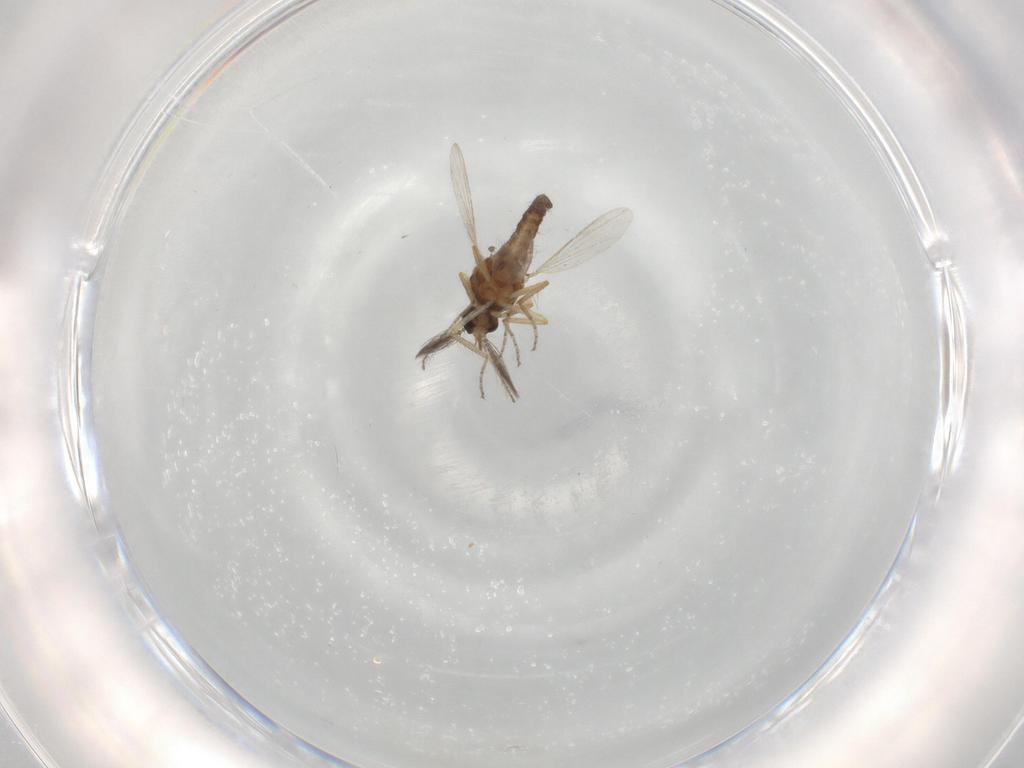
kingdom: Animalia
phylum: Arthropoda
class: Insecta
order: Diptera
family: Ceratopogonidae
